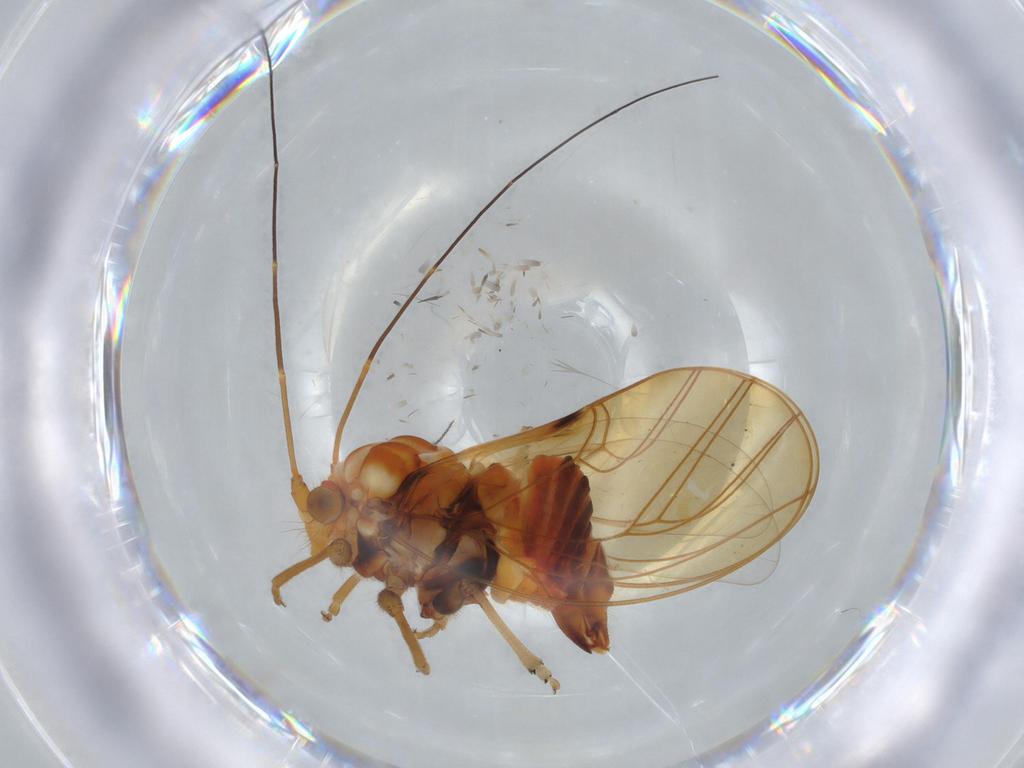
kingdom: Animalia
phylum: Arthropoda
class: Insecta
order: Hemiptera
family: Psyllidae
